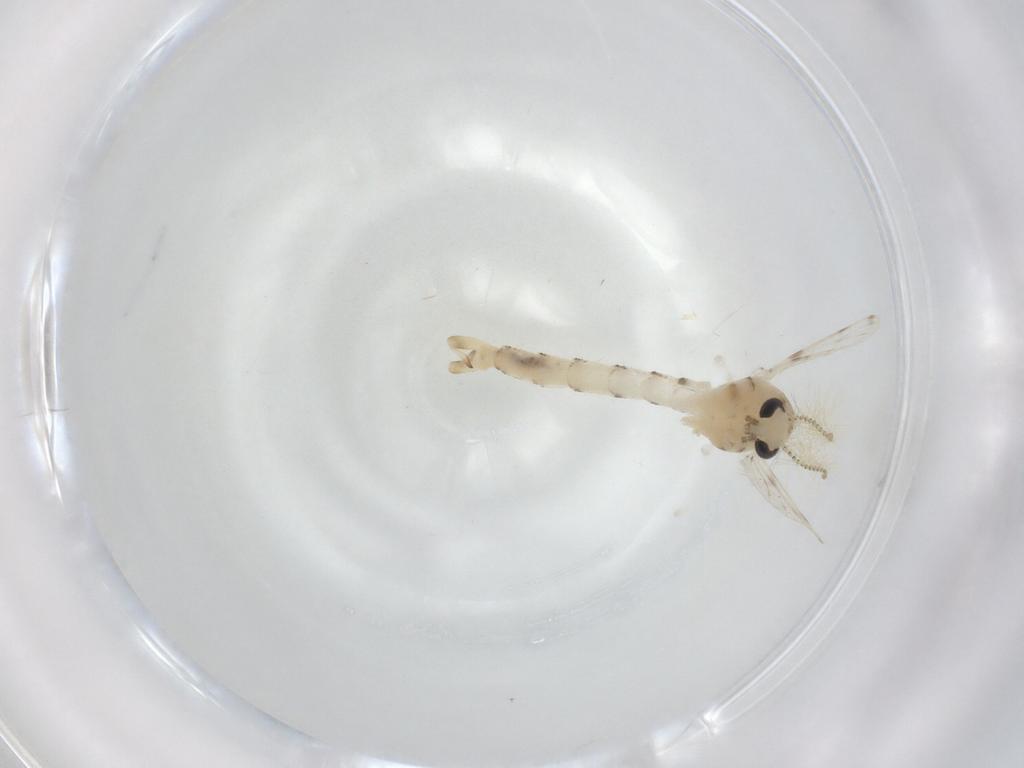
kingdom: Animalia
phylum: Arthropoda
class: Insecta
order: Diptera
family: Chaoboridae
